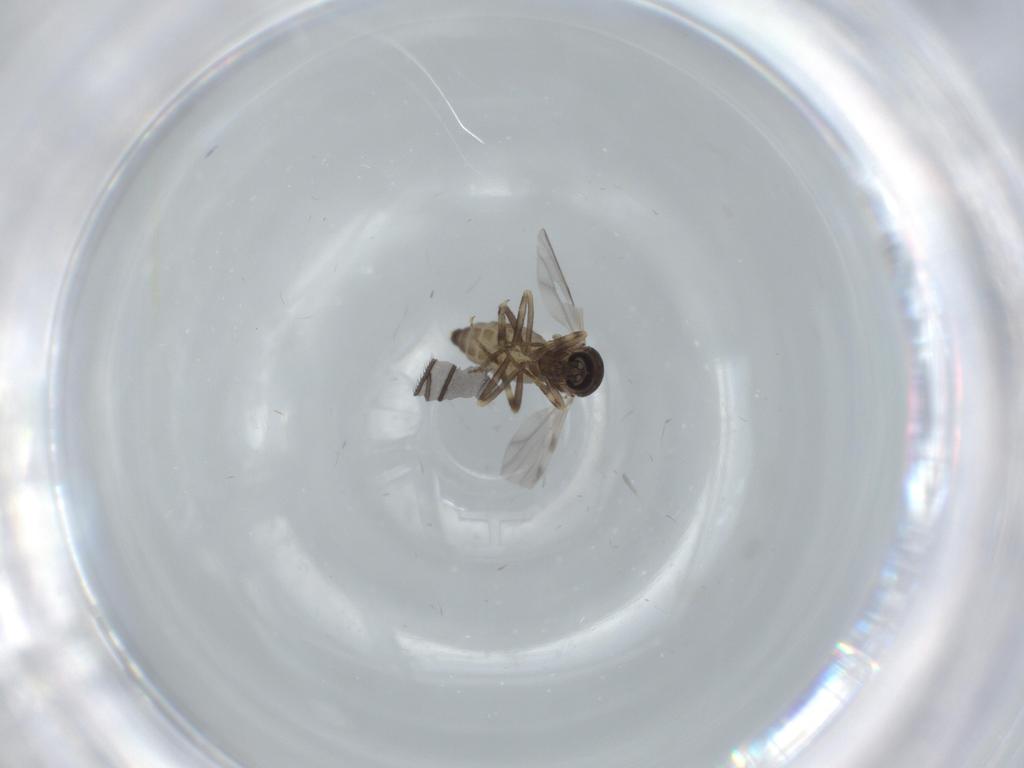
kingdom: Animalia
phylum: Arthropoda
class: Insecta
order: Diptera
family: Ceratopogonidae
